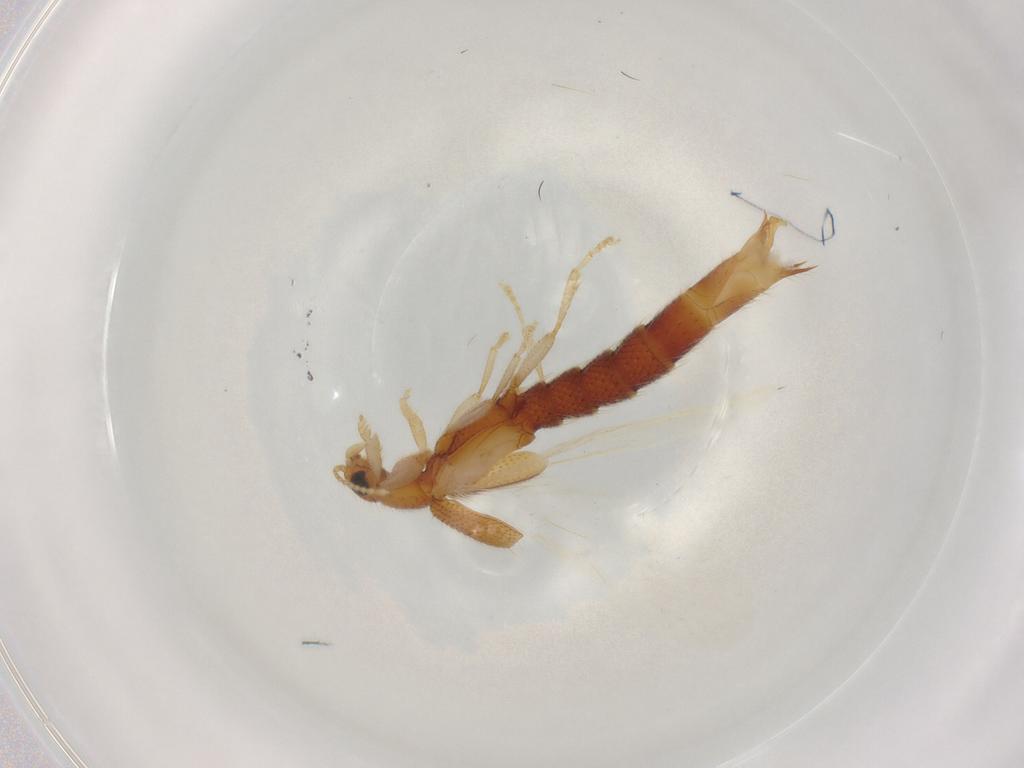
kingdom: Animalia
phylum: Arthropoda
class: Insecta
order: Coleoptera
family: Staphylinidae
